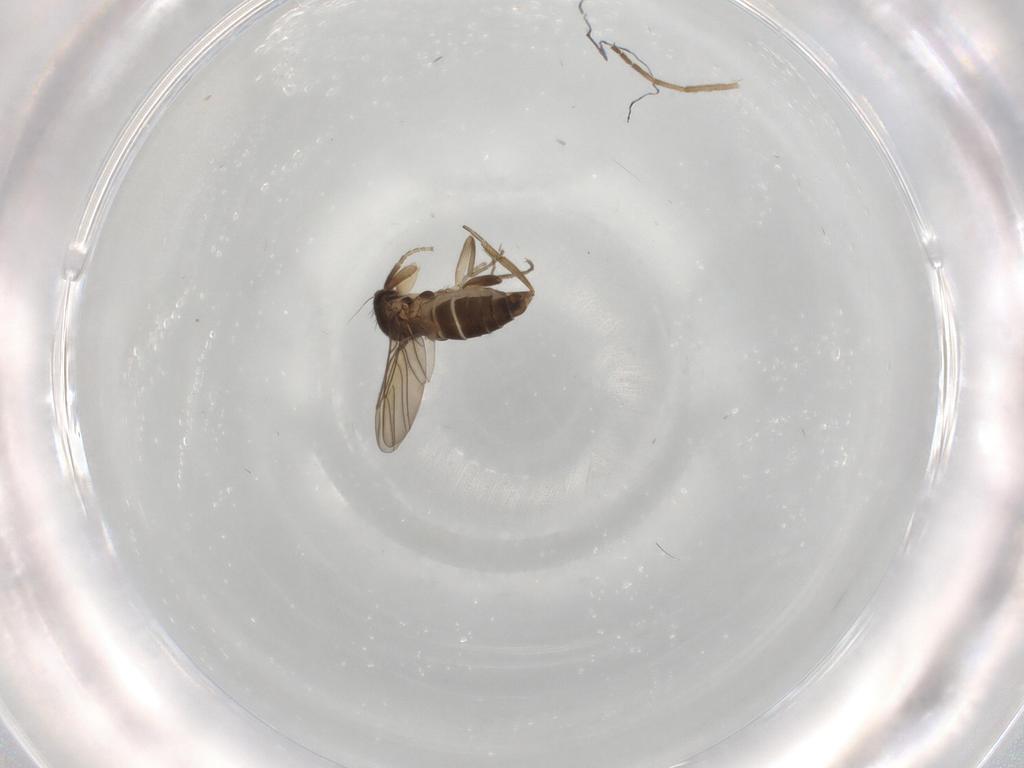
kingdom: Animalia
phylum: Arthropoda
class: Insecta
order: Diptera
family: Phoridae
